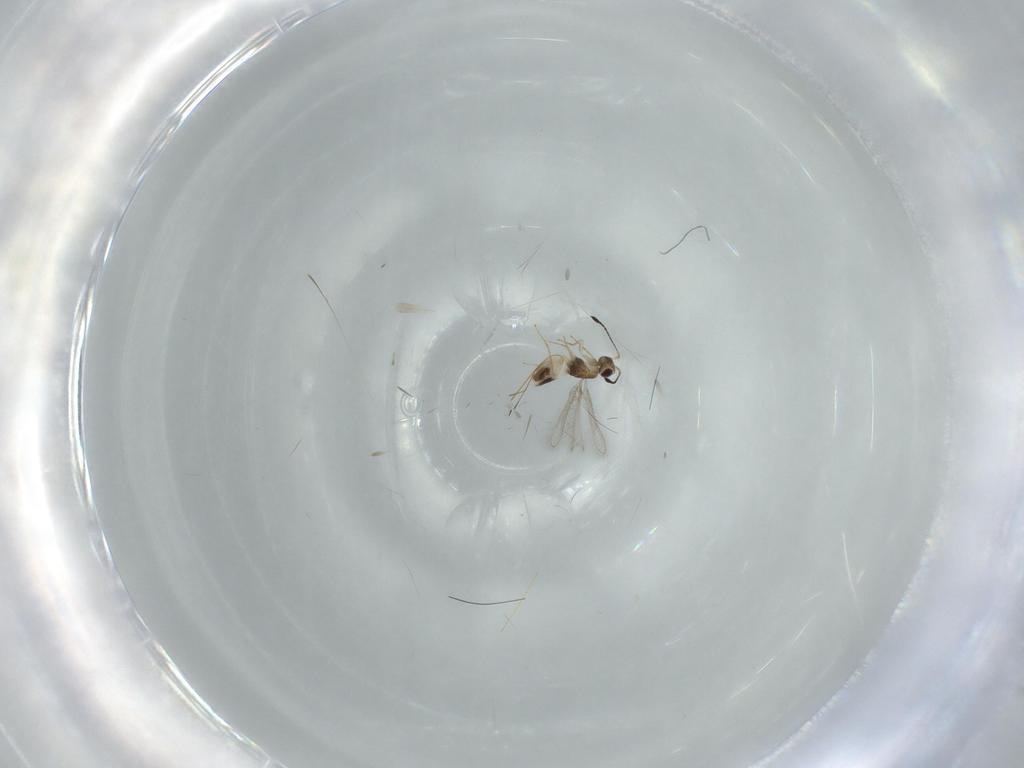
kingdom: Animalia
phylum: Arthropoda
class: Insecta
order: Hymenoptera
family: Mymaridae
